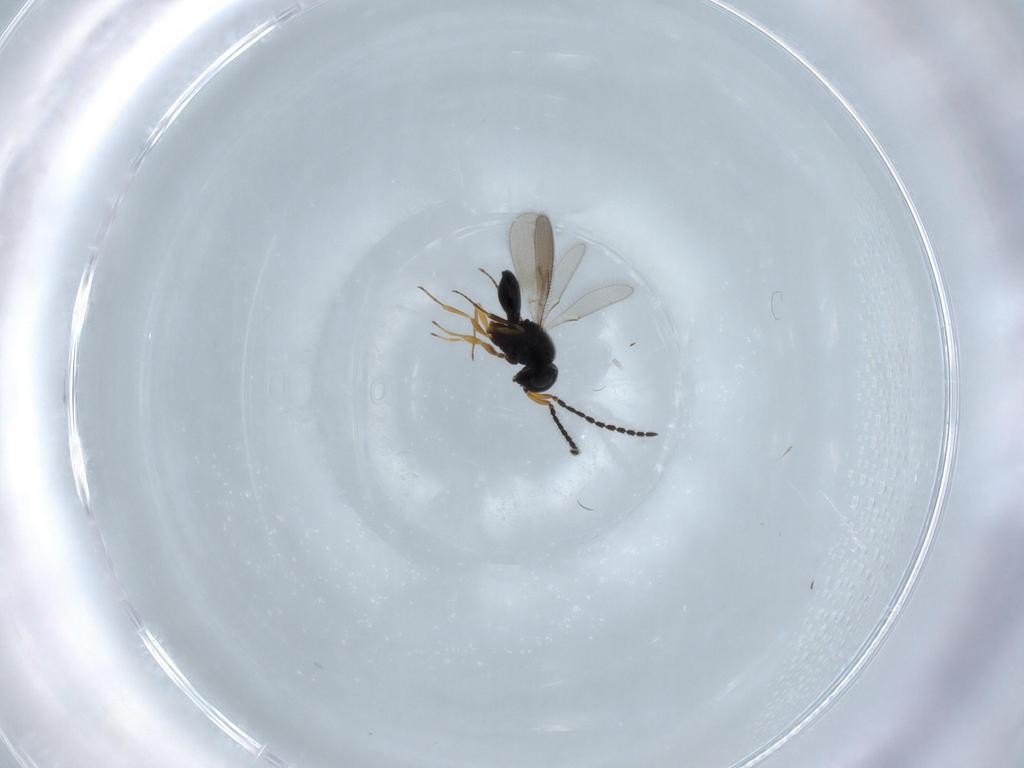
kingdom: Animalia
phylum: Arthropoda
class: Insecta
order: Hymenoptera
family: Scelionidae
